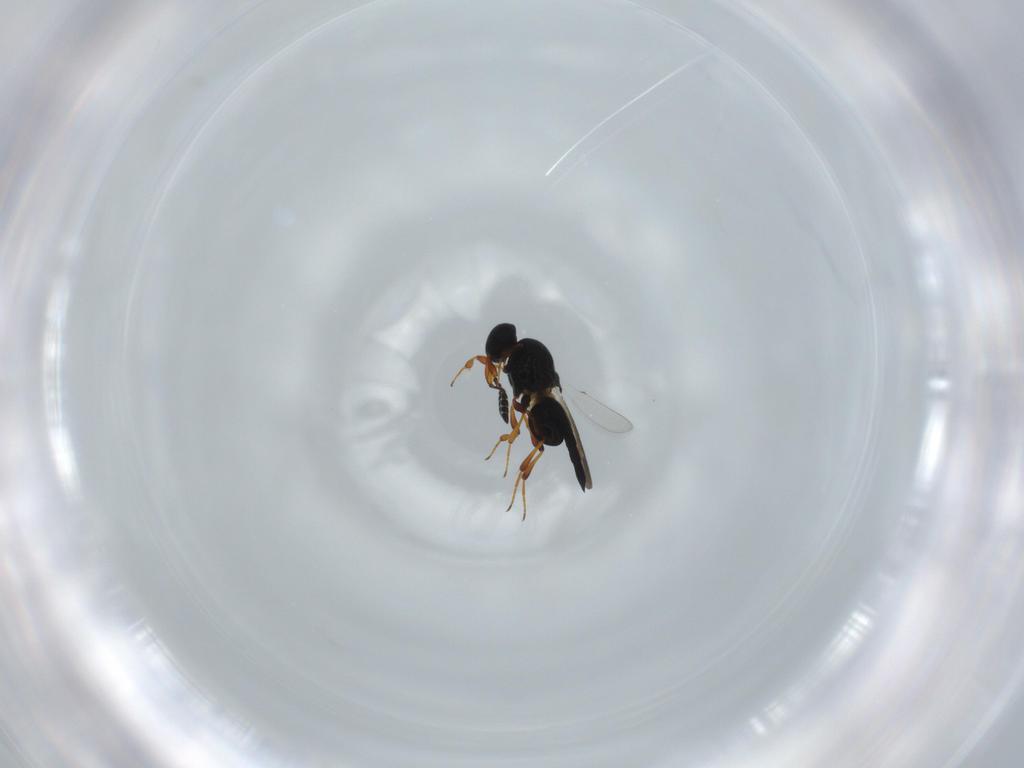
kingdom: Animalia
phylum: Arthropoda
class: Insecta
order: Hymenoptera
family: Platygastridae
